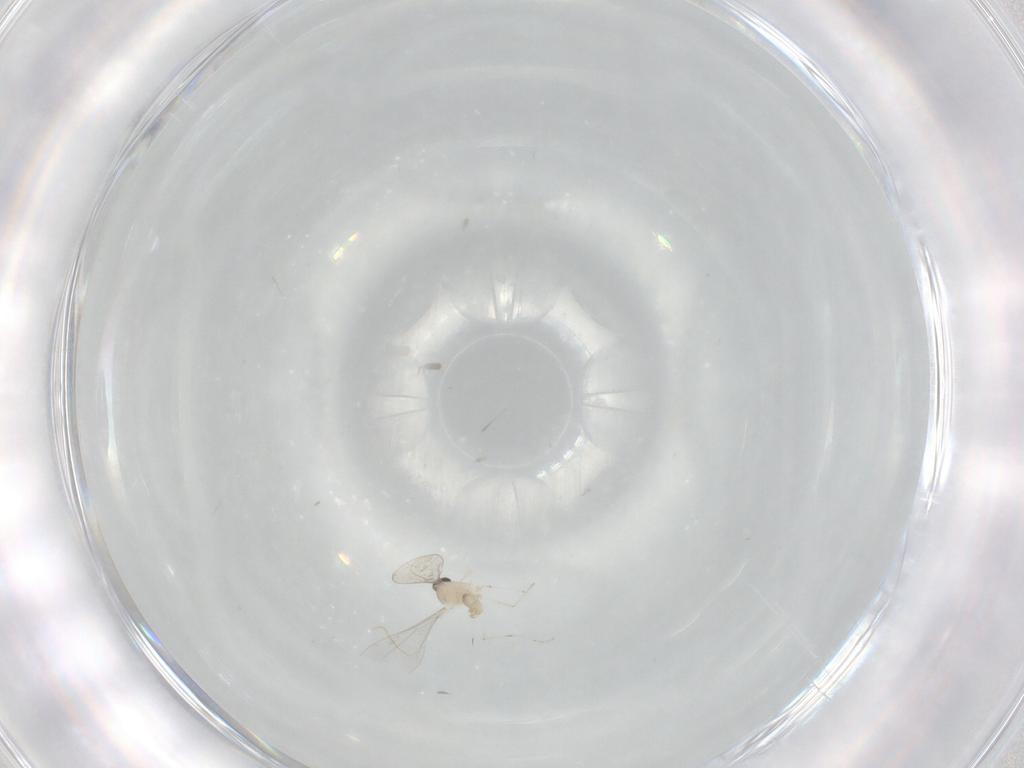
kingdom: Animalia
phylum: Arthropoda
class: Insecta
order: Diptera
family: Cecidomyiidae
